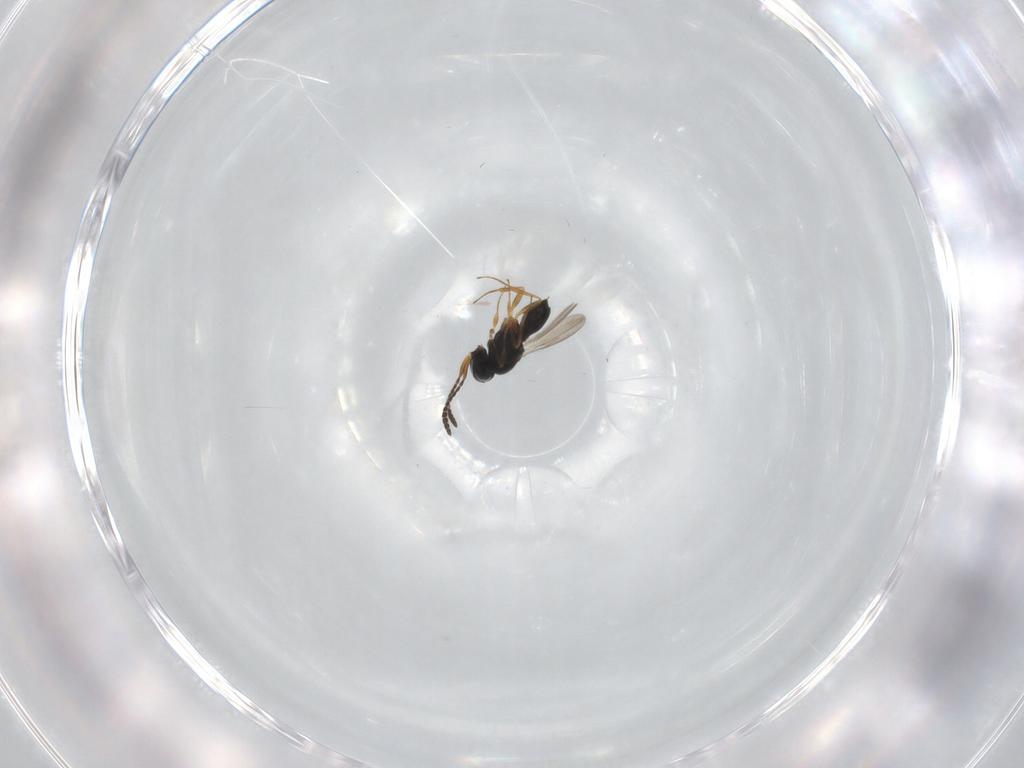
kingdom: Animalia
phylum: Arthropoda
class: Insecta
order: Hymenoptera
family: Scelionidae
